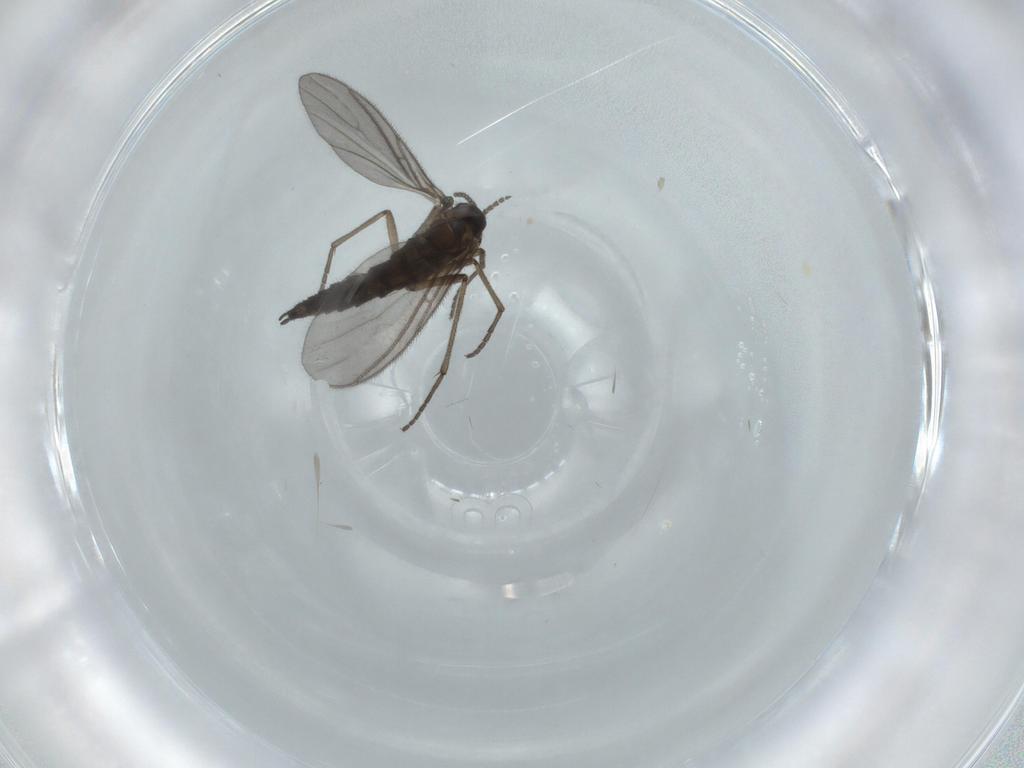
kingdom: Animalia
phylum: Arthropoda
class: Insecta
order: Diptera
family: Sciaridae
